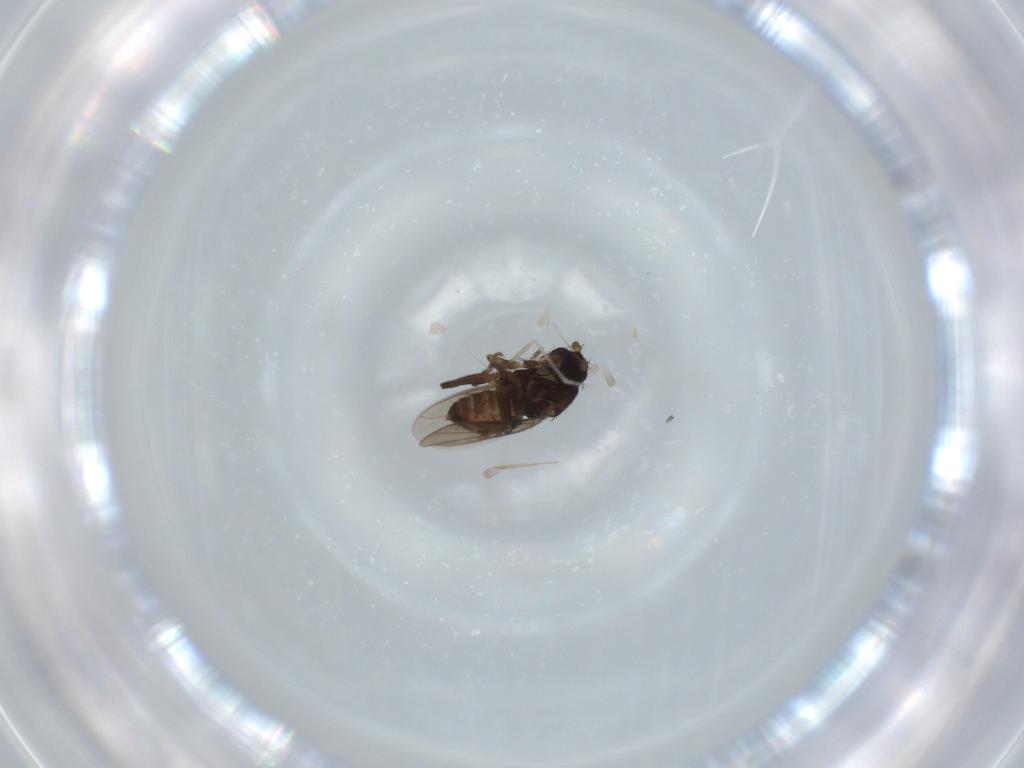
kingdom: Animalia
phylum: Arthropoda
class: Insecta
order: Diptera
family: Sphaeroceridae
